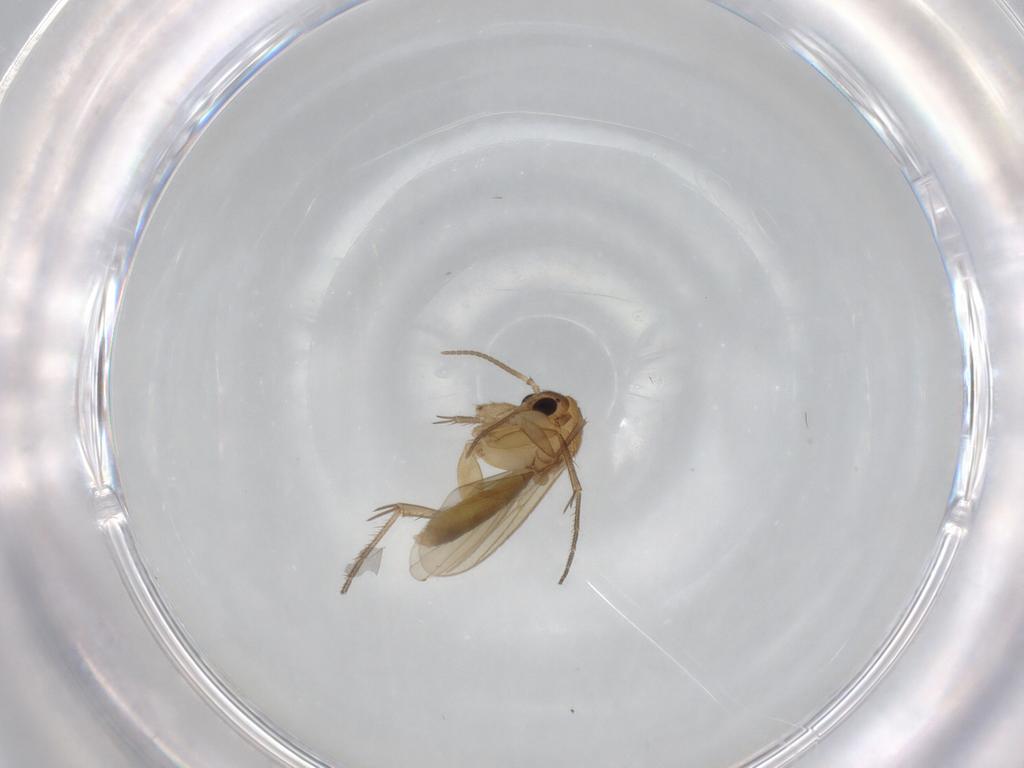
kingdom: Animalia
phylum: Arthropoda
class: Insecta
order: Diptera
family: Mycetophilidae
